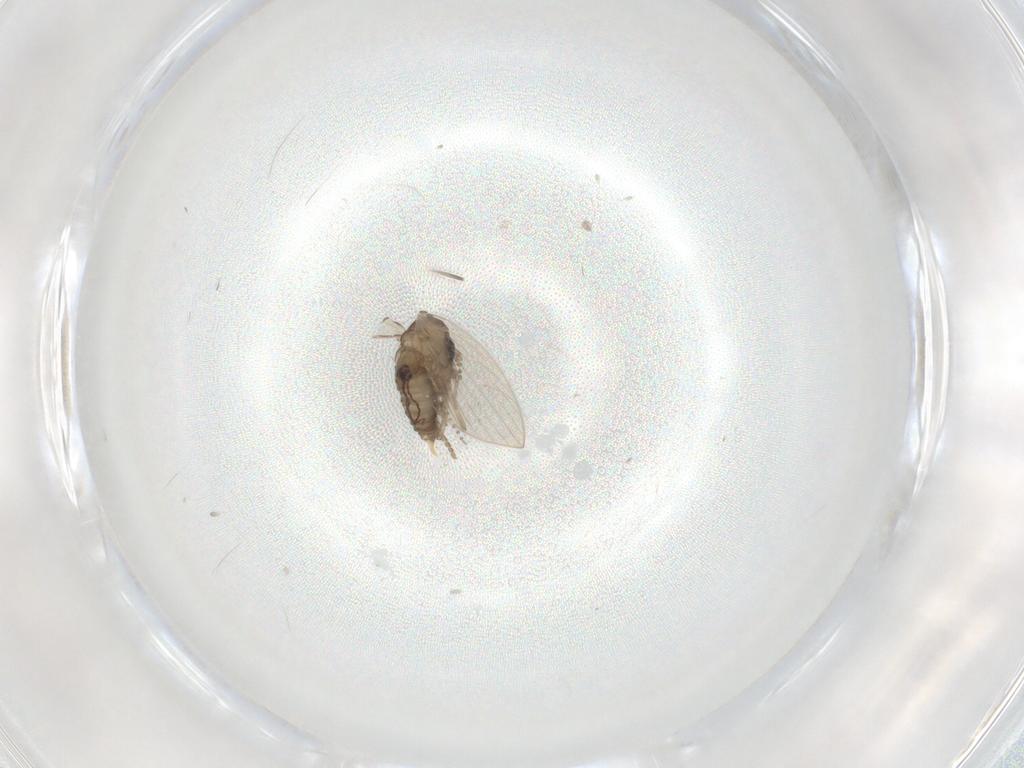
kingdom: Animalia
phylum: Arthropoda
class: Insecta
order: Diptera
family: Psychodidae
